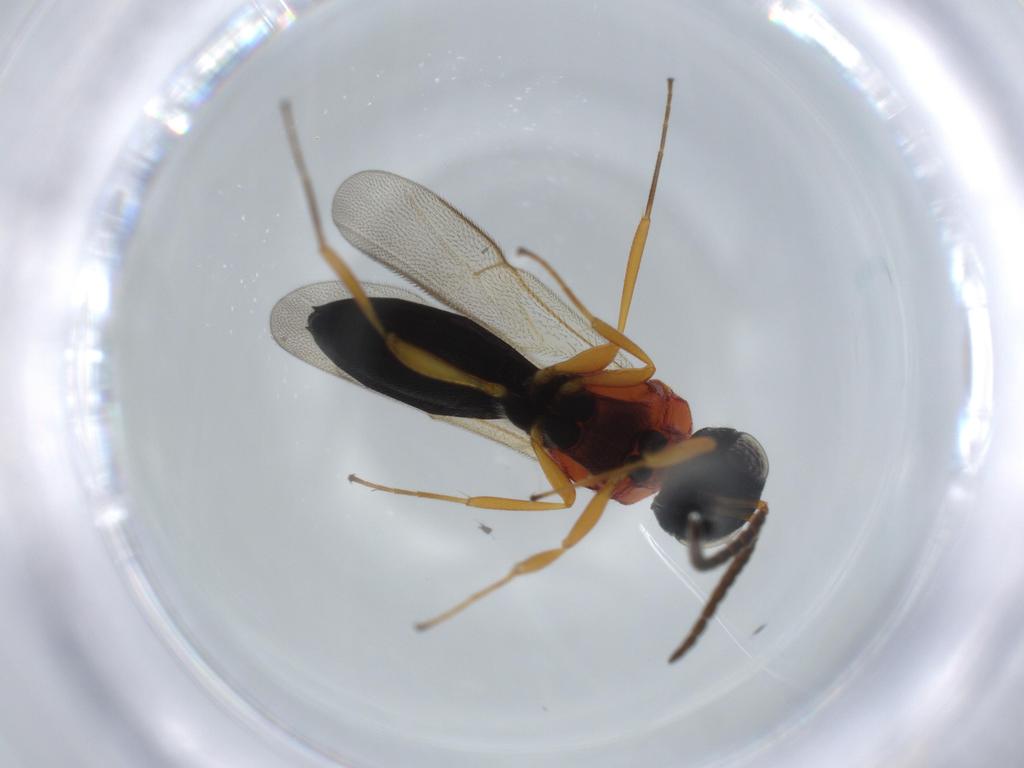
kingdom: Animalia
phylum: Arthropoda
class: Insecta
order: Hymenoptera
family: Scelionidae
